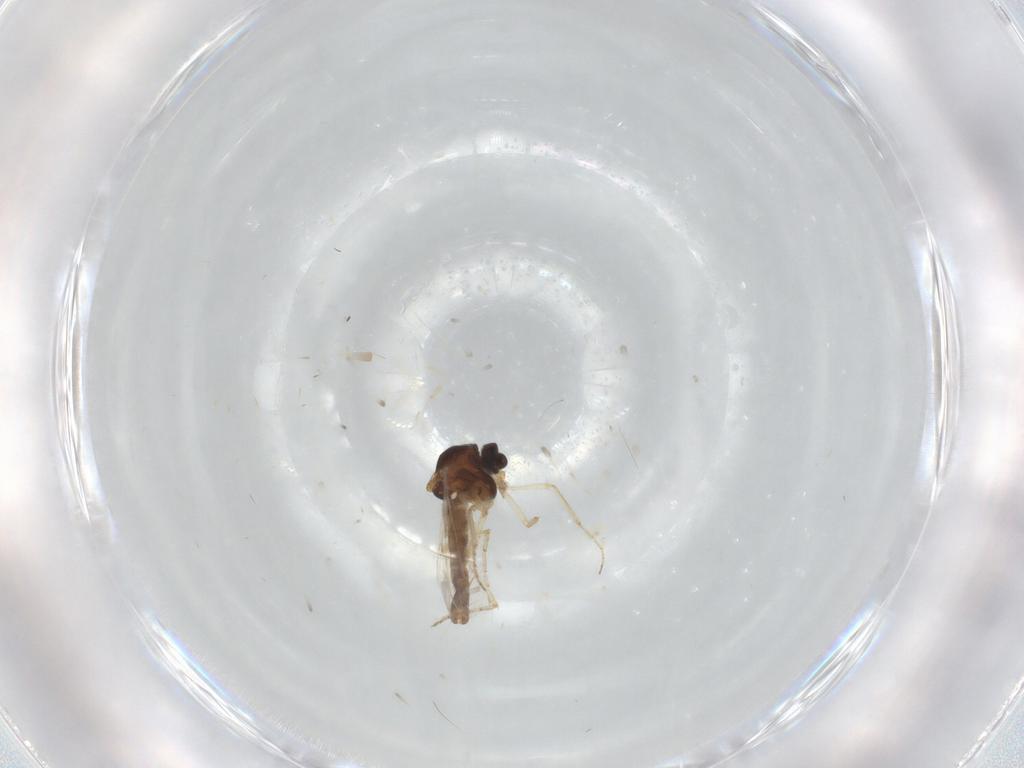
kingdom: Animalia
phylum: Arthropoda
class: Insecta
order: Diptera
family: Phoridae
